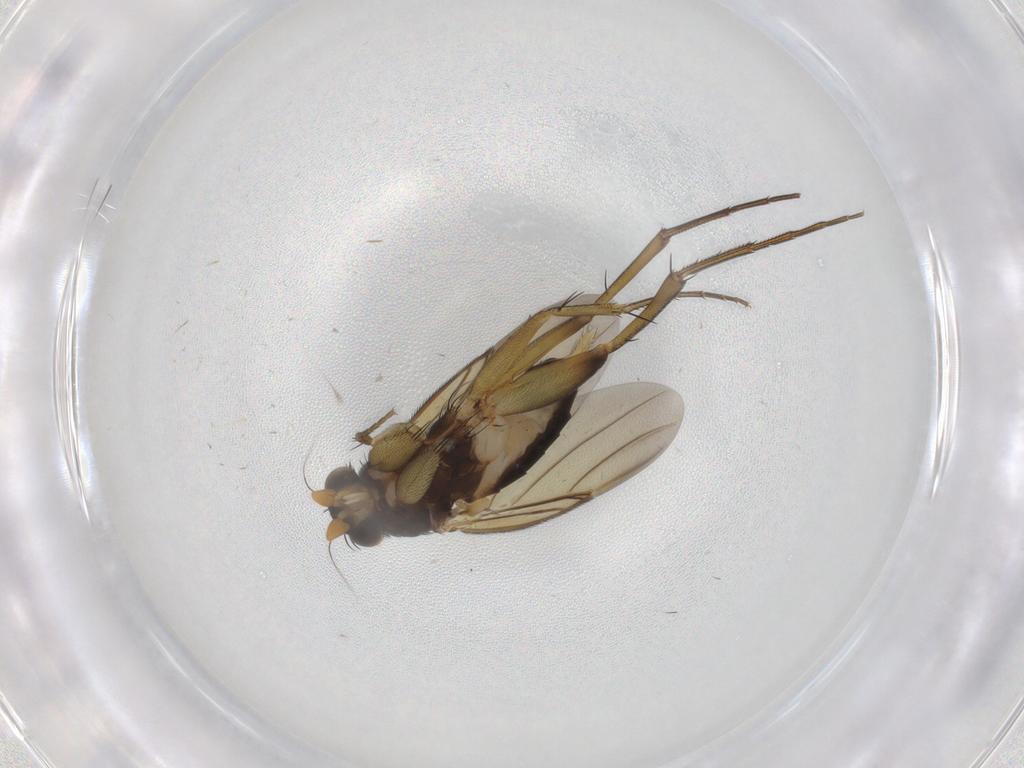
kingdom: Animalia
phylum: Arthropoda
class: Insecta
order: Diptera
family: Phoridae
